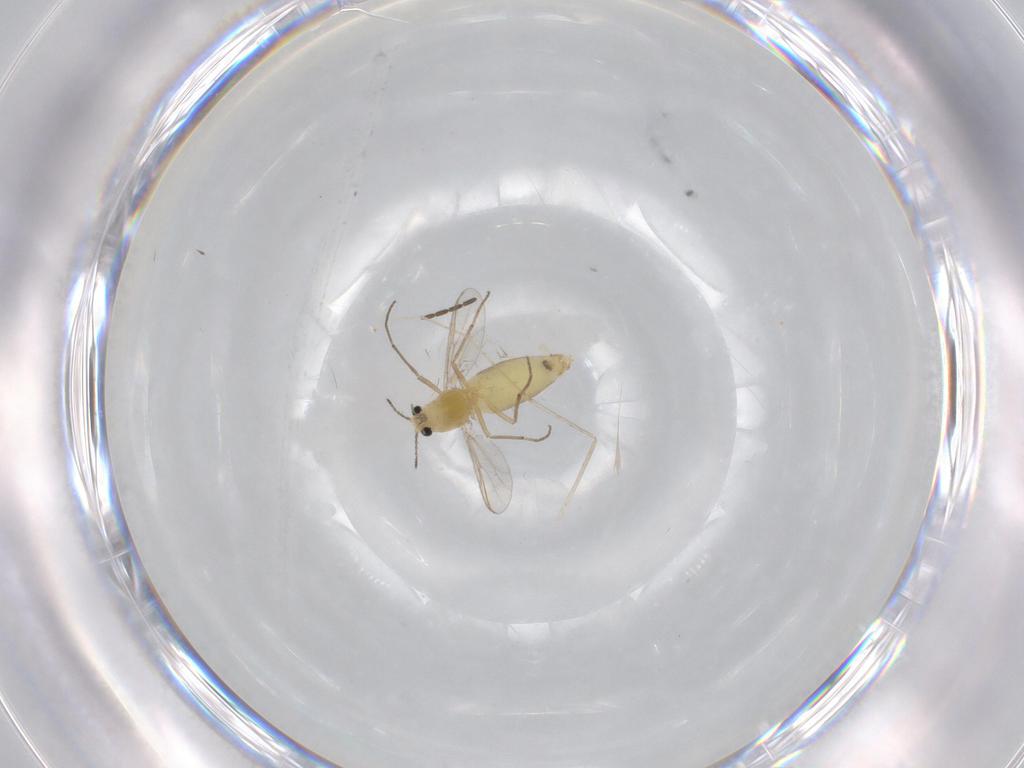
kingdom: Animalia
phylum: Arthropoda
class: Insecta
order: Diptera
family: Chironomidae
